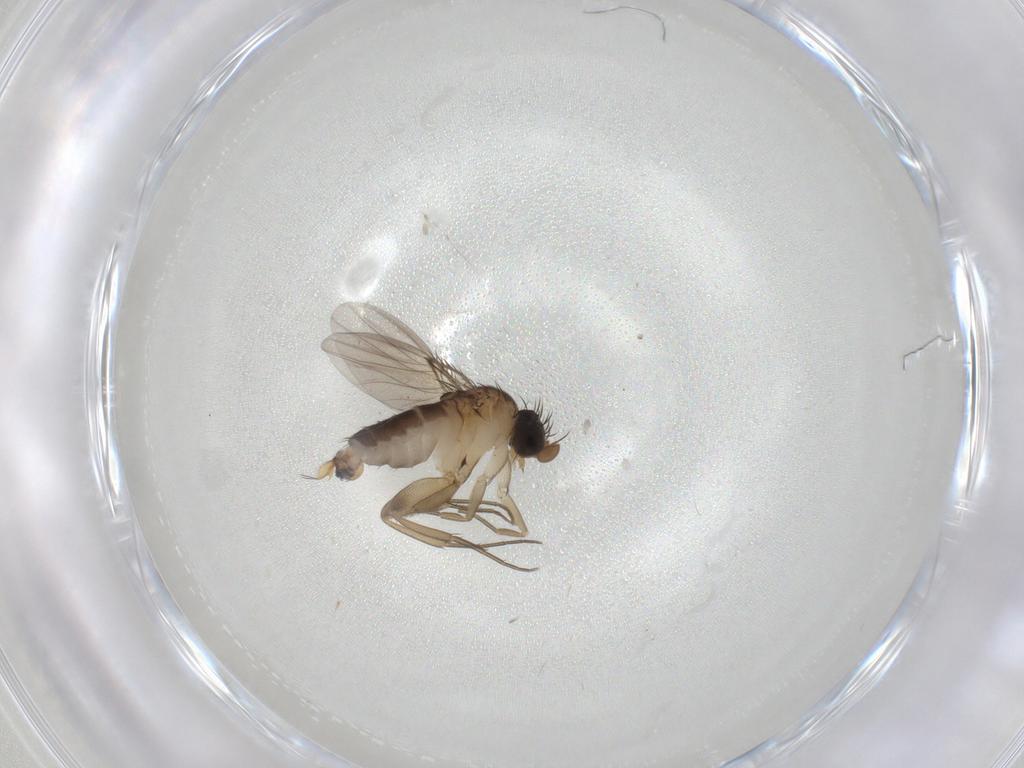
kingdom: Animalia
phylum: Arthropoda
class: Insecta
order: Diptera
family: Phoridae
